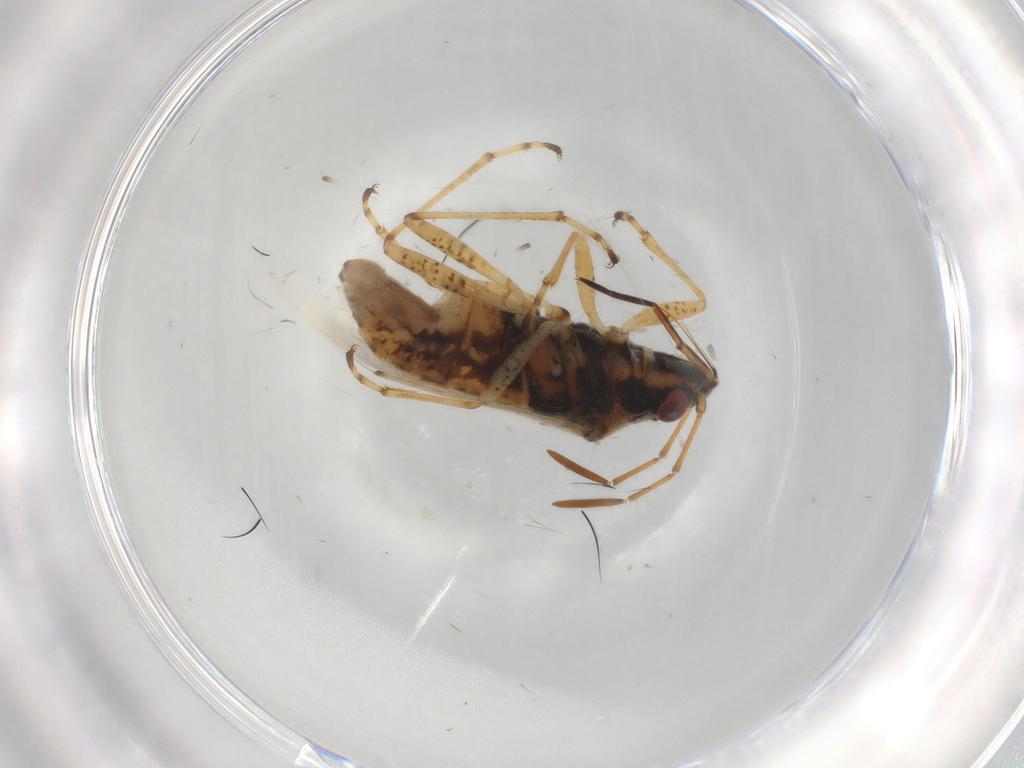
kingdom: Animalia
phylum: Arthropoda
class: Insecta
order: Hemiptera
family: Lygaeidae
